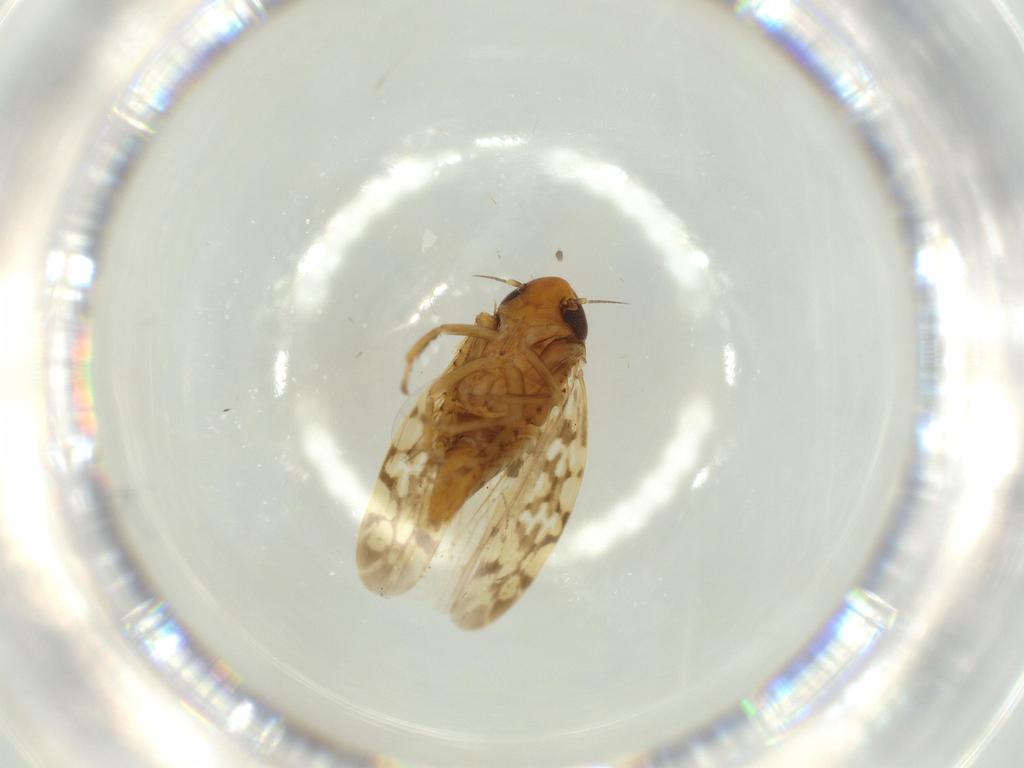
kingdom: Animalia
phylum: Arthropoda
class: Insecta
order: Hemiptera
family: Cicadellidae
